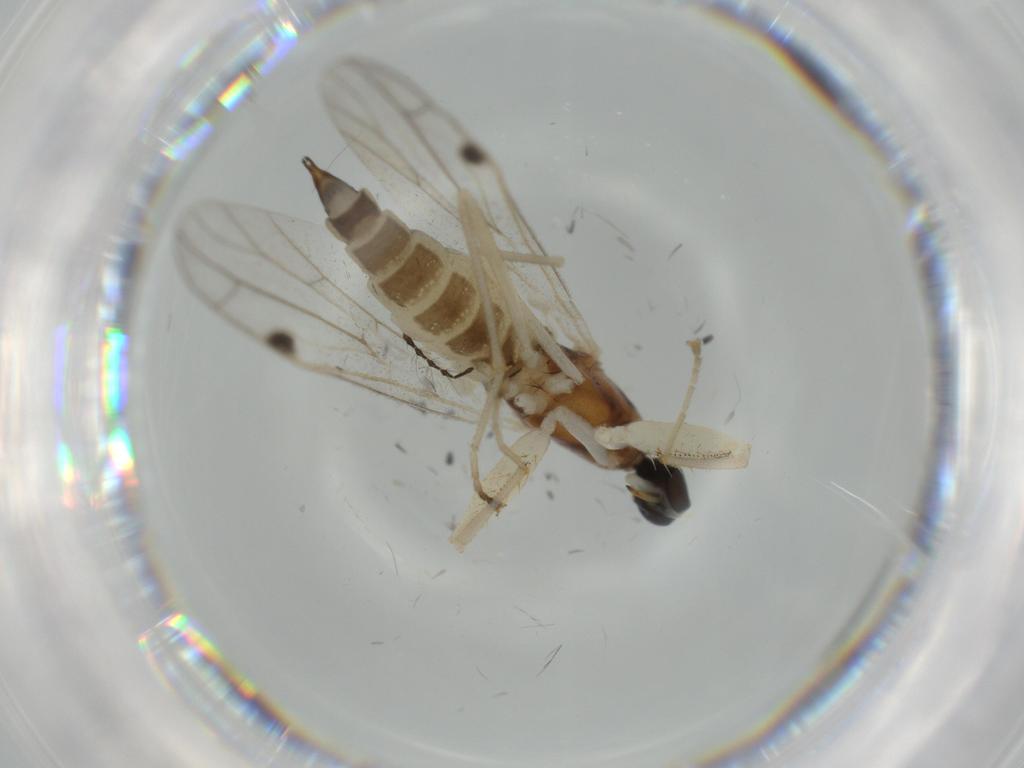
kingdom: Animalia
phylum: Arthropoda
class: Insecta
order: Diptera
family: Empididae
